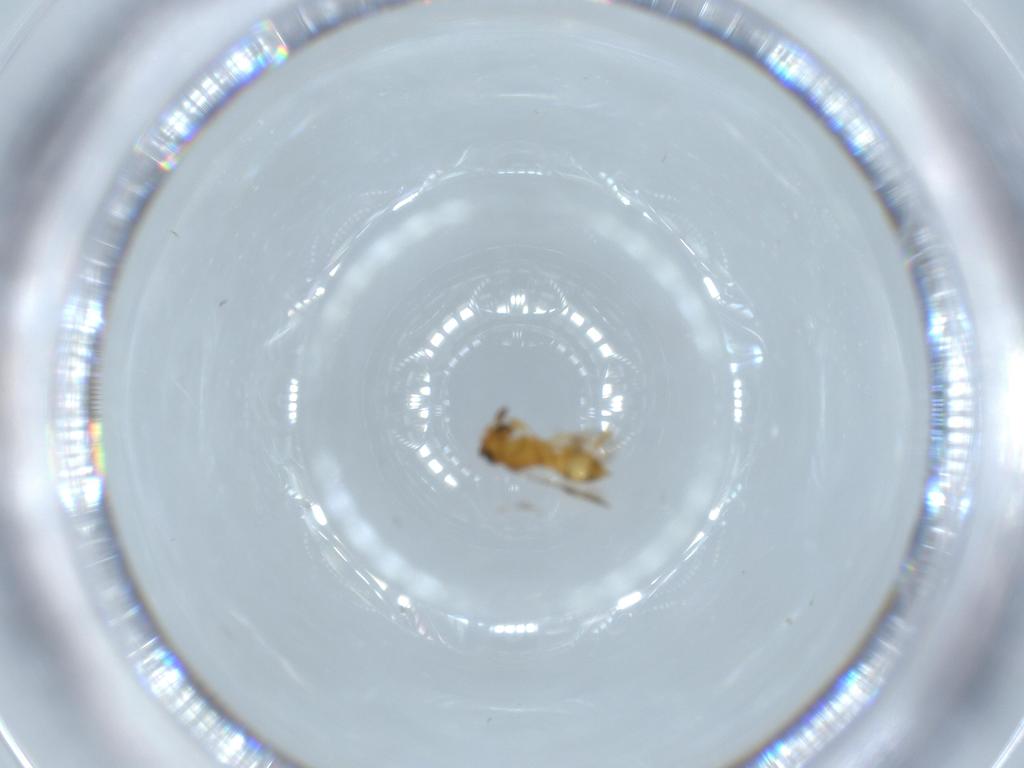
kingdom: Animalia
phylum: Arthropoda
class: Insecta
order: Hymenoptera
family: Scelionidae
